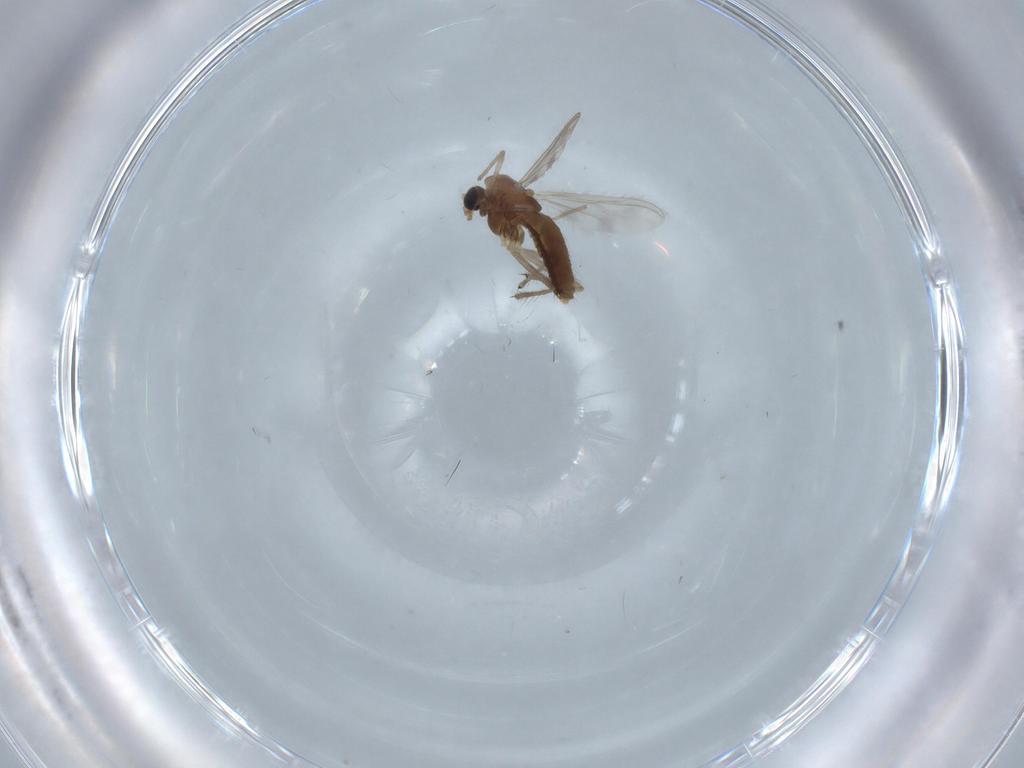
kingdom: Animalia
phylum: Arthropoda
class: Insecta
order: Diptera
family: Chironomidae
